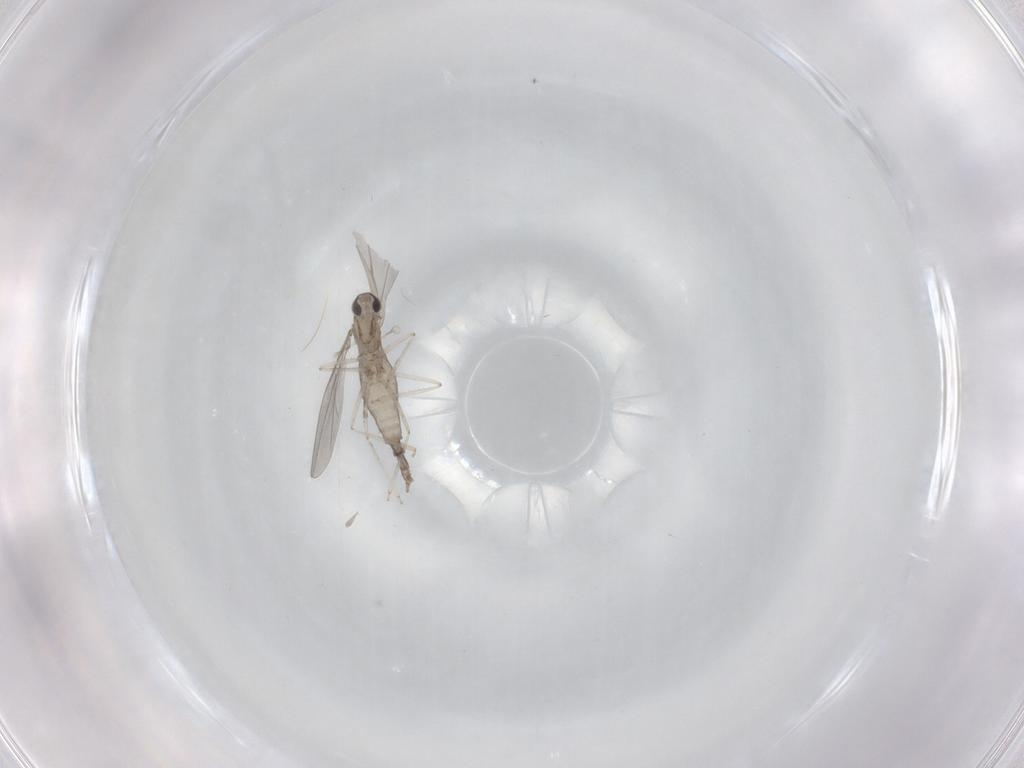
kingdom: Animalia
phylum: Arthropoda
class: Insecta
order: Diptera
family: Cecidomyiidae
